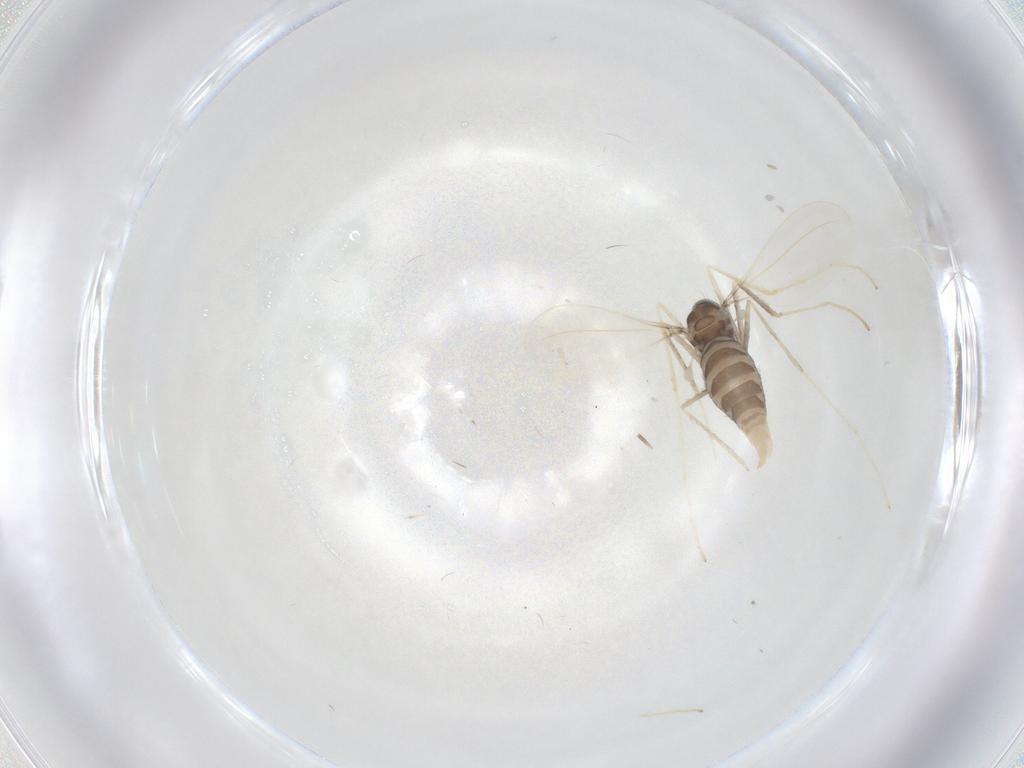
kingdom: Animalia
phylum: Arthropoda
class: Insecta
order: Diptera
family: Cecidomyiidae
